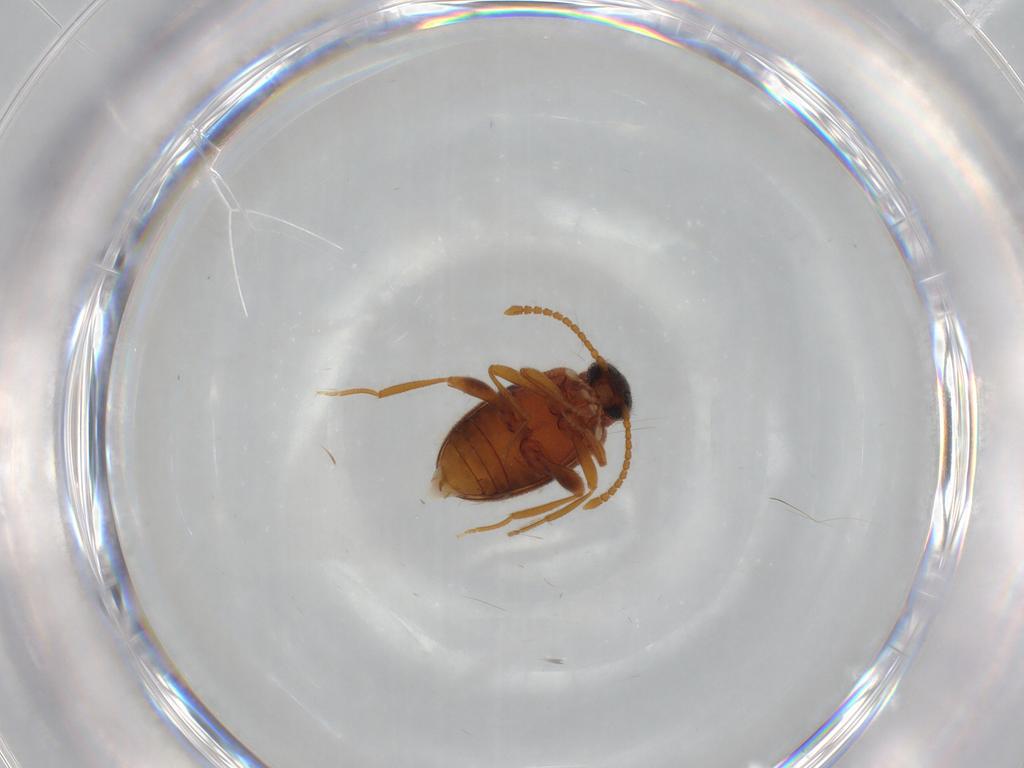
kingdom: Animalia
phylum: Arthropoda
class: Insecta
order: Coleoptera
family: Aderidae
